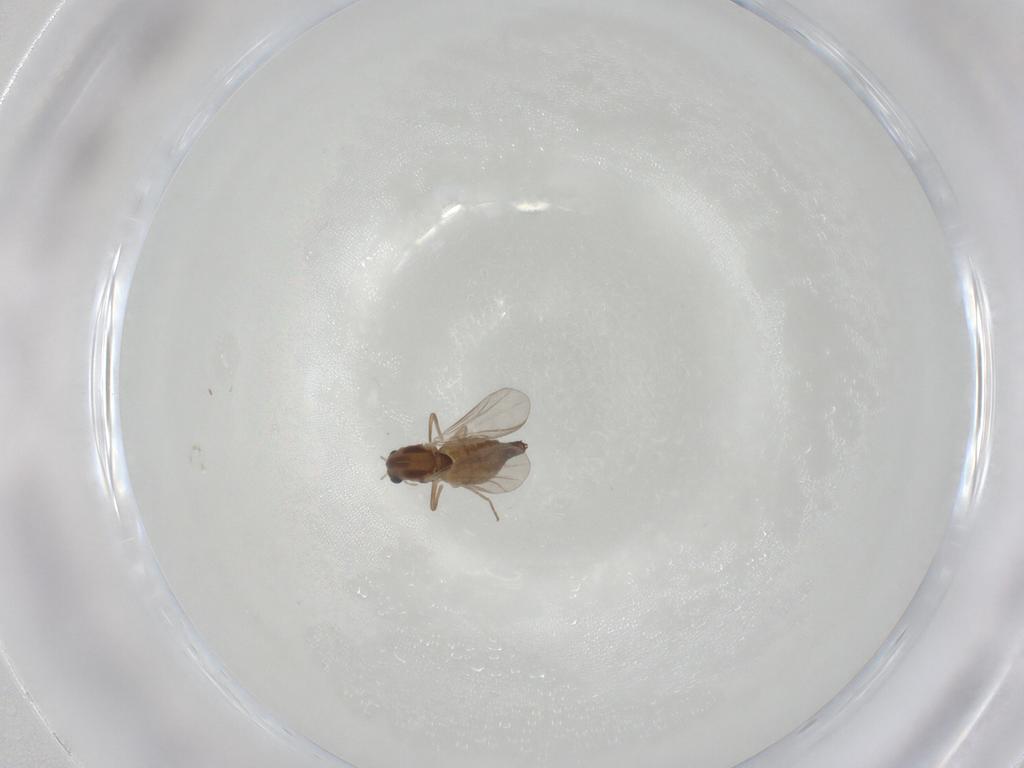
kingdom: Animalia
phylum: Arthropoda
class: Insecta
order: Diptera
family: Chironomidae
